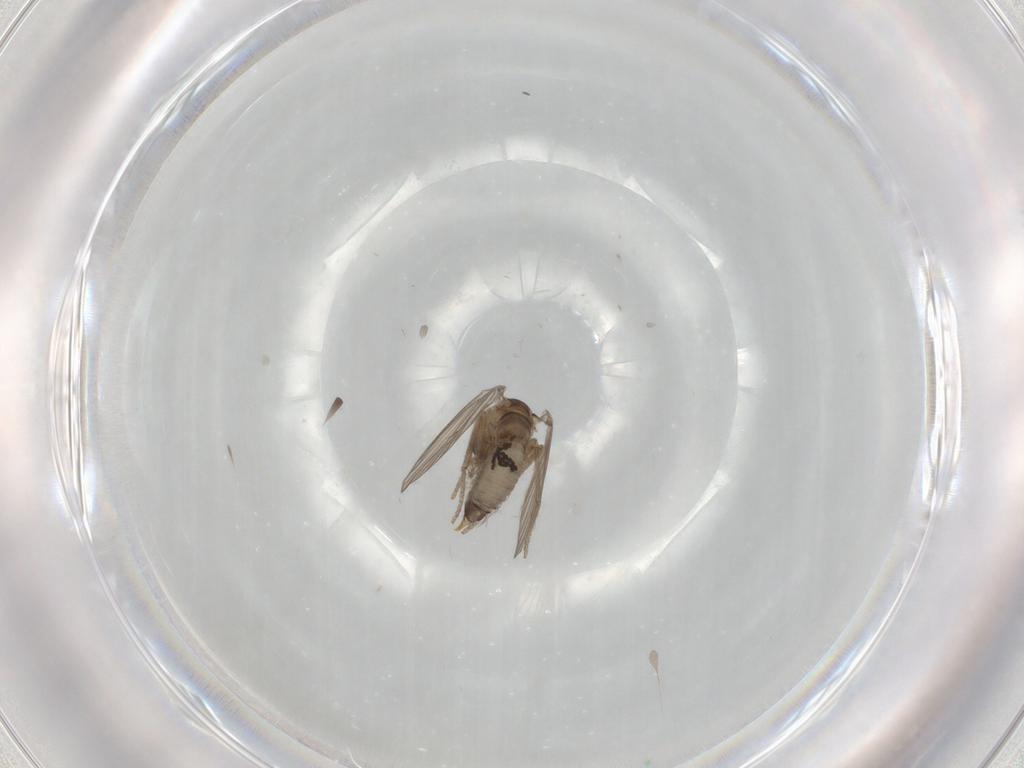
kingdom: Animalia
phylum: Arthropoda
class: Insecta
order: Diptera
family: Psychodidae
